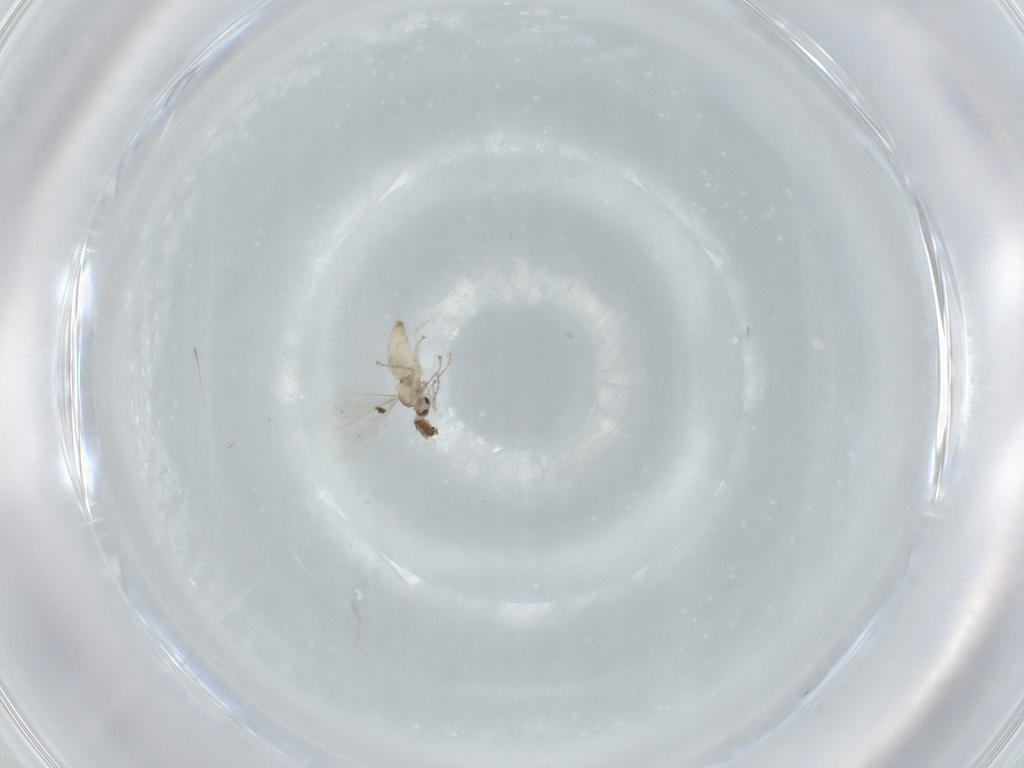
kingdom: Animalia
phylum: Arthropoda
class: Insecta
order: Diptera
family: Cecidomyiidae
